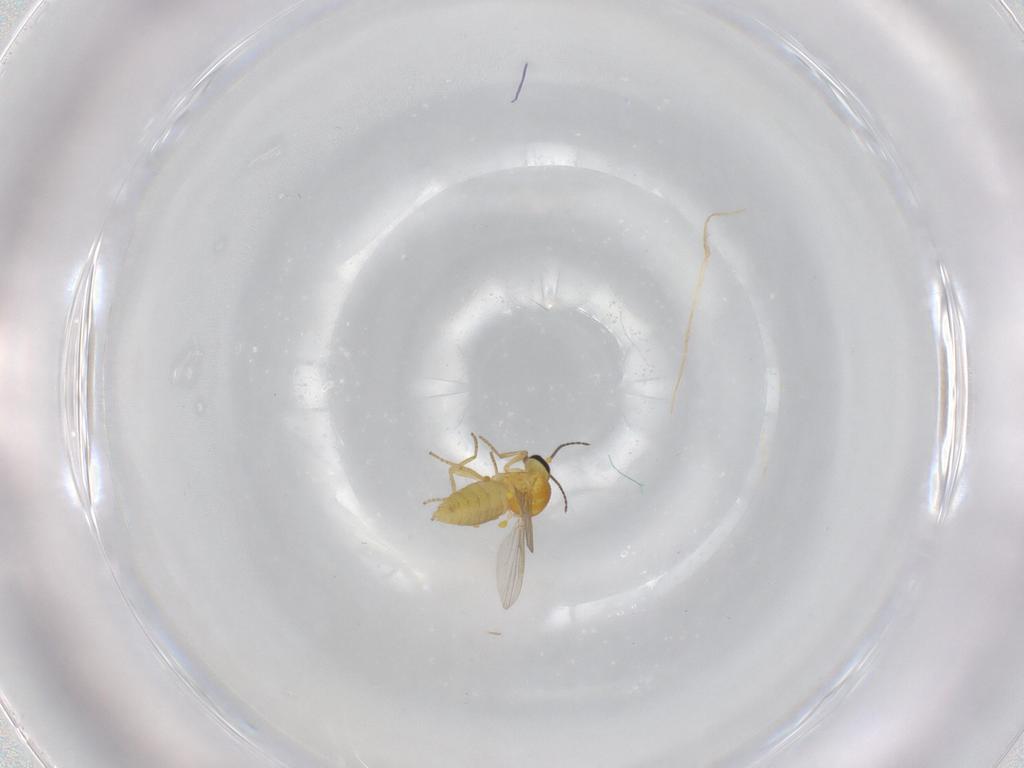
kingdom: Animalia
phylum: Arthropoda
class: Insecta
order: Diptera
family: Ceratopogonidae
